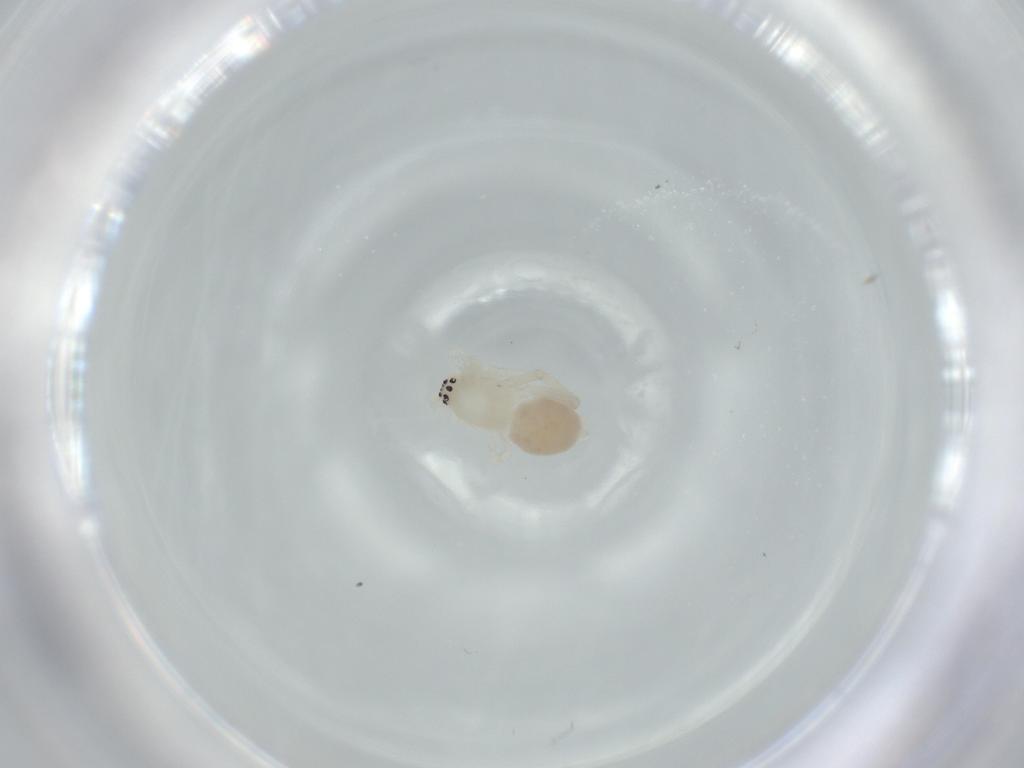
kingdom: Animalia
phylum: Arthropoda
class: Arachnida
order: Araneae
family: Anyphaenidae
